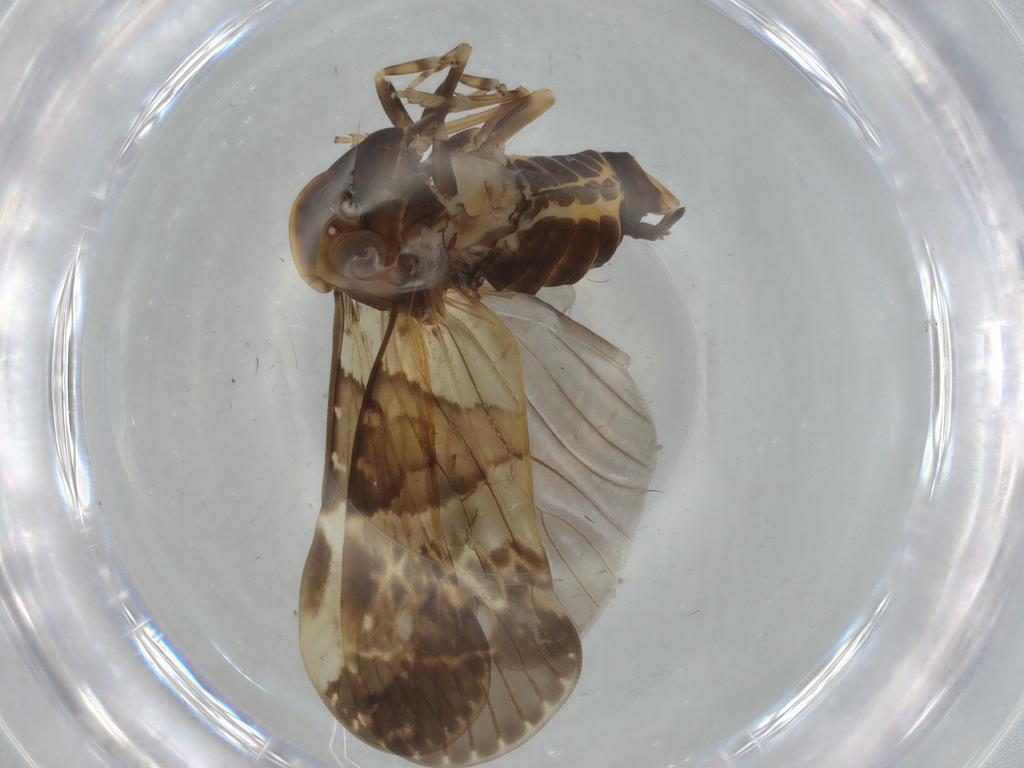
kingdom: Animalia
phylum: Arthropoda
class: Insecta
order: Hemiptera
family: Cixiidae
